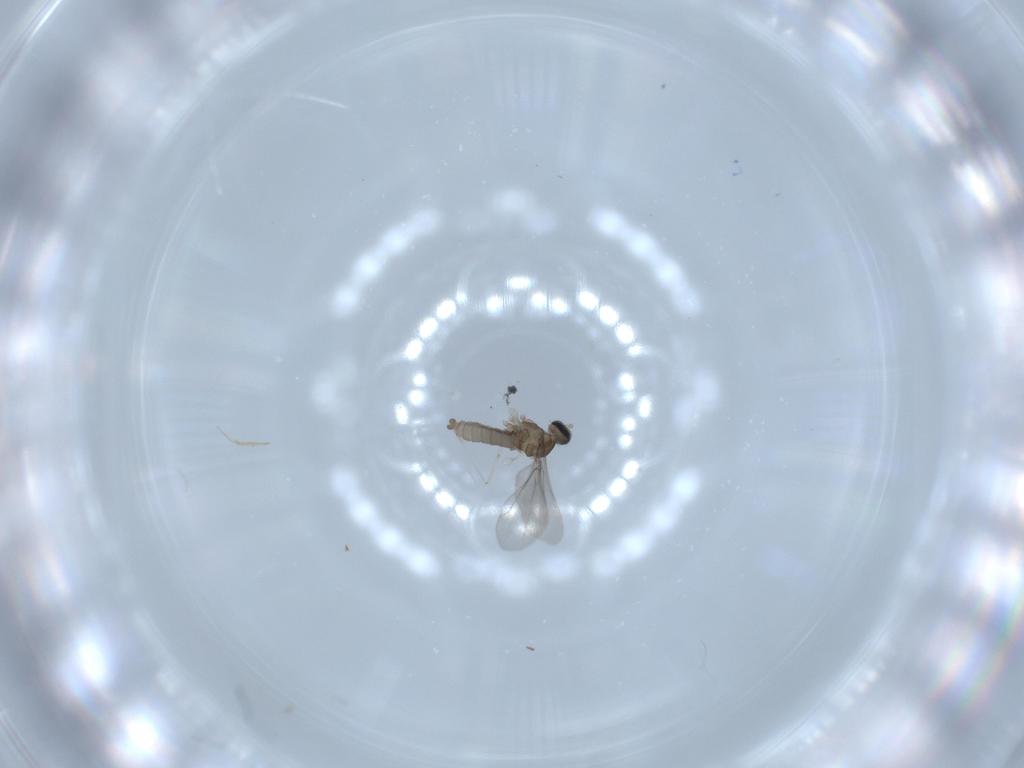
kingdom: Animalia
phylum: Arthropoda
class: Insecta
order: Diptera
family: Cecidomyiidae
